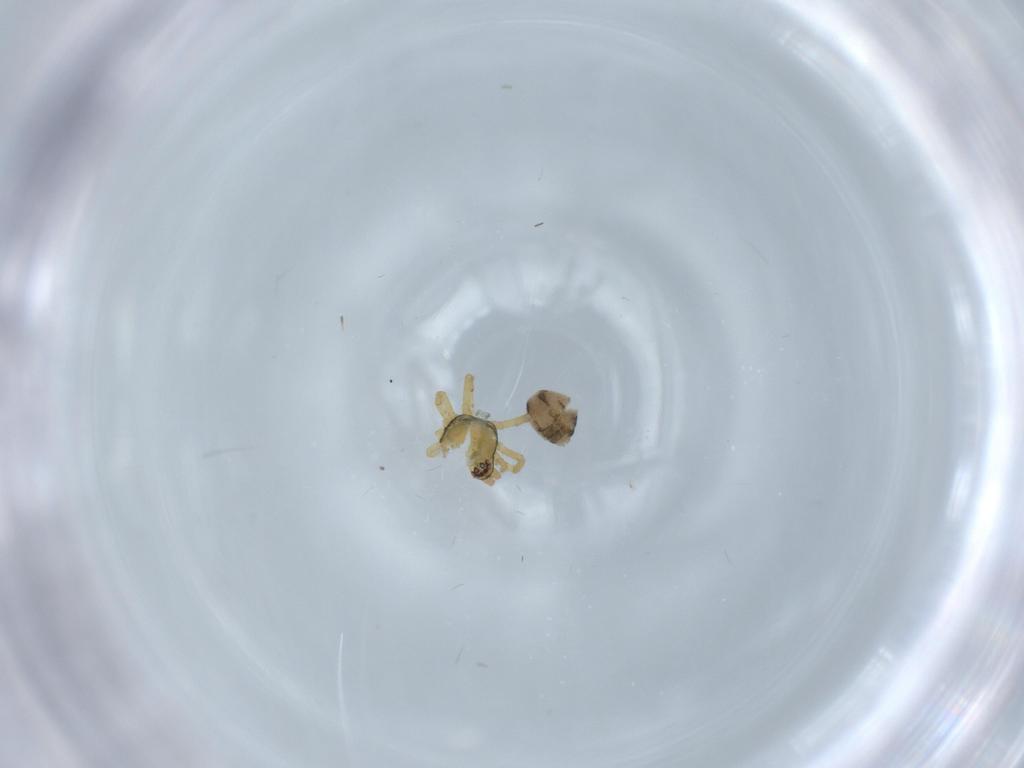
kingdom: Animalia
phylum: Arthropoda
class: Arachnida
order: Araneae
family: Theridiidae
